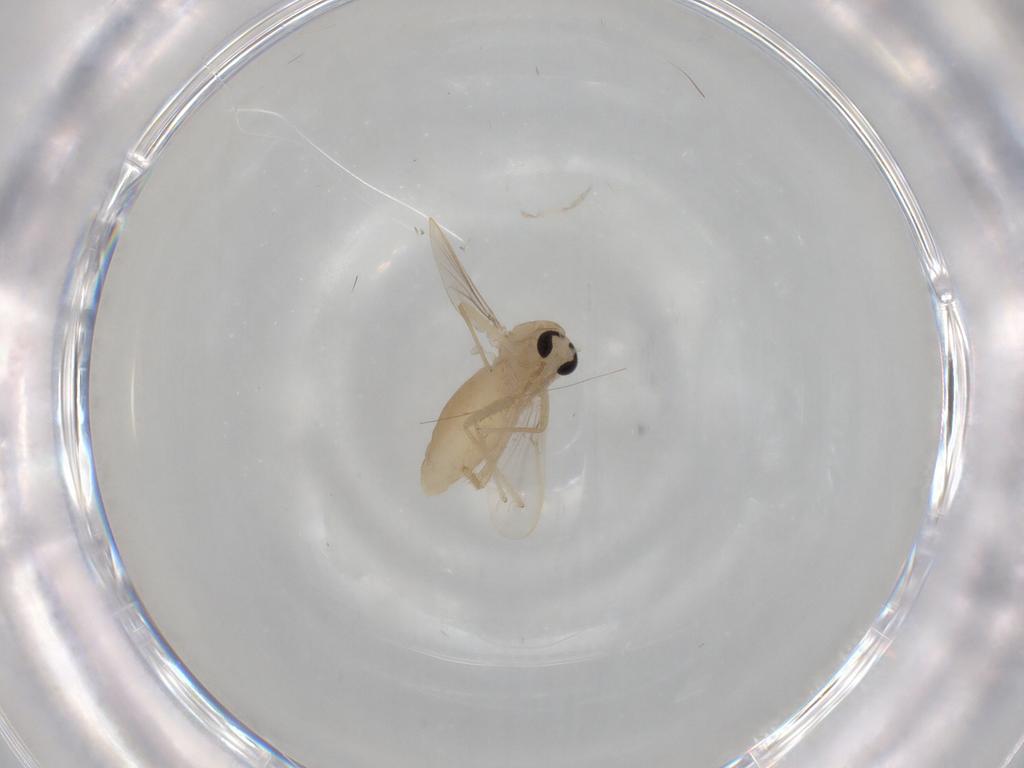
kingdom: Animalia
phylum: Arthropoda
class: Insecta
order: Diptera
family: Chironomidae
